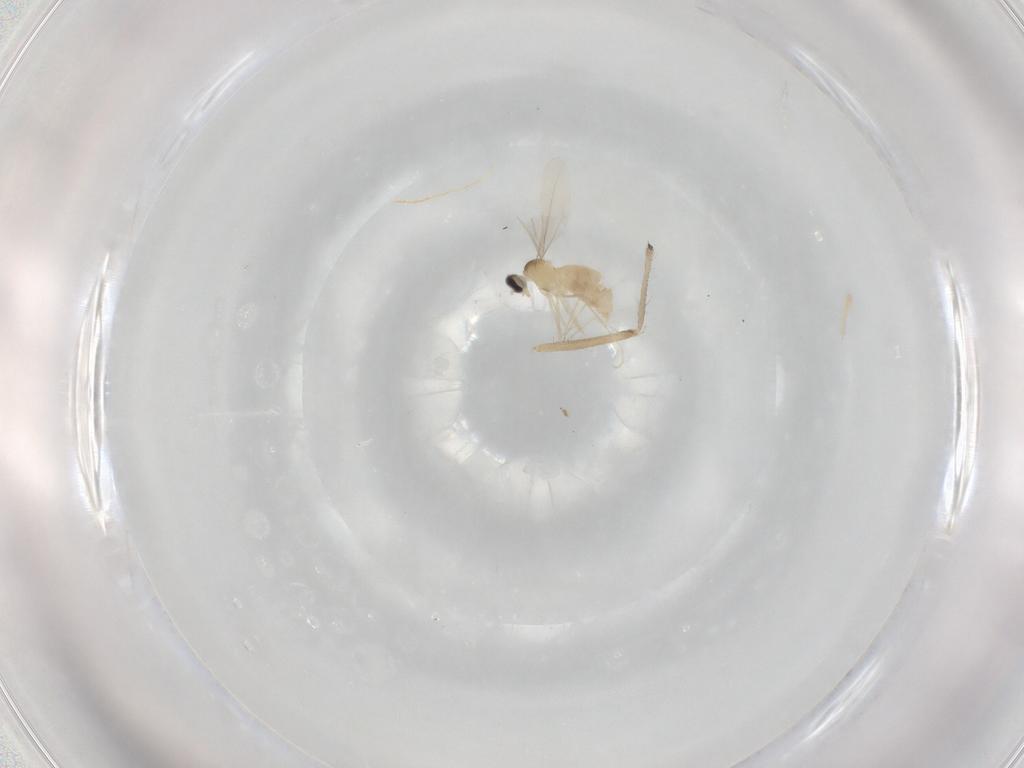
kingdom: Animalia
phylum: Arthropoda
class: Insecta
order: Diptera
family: Cecidomyiidae
